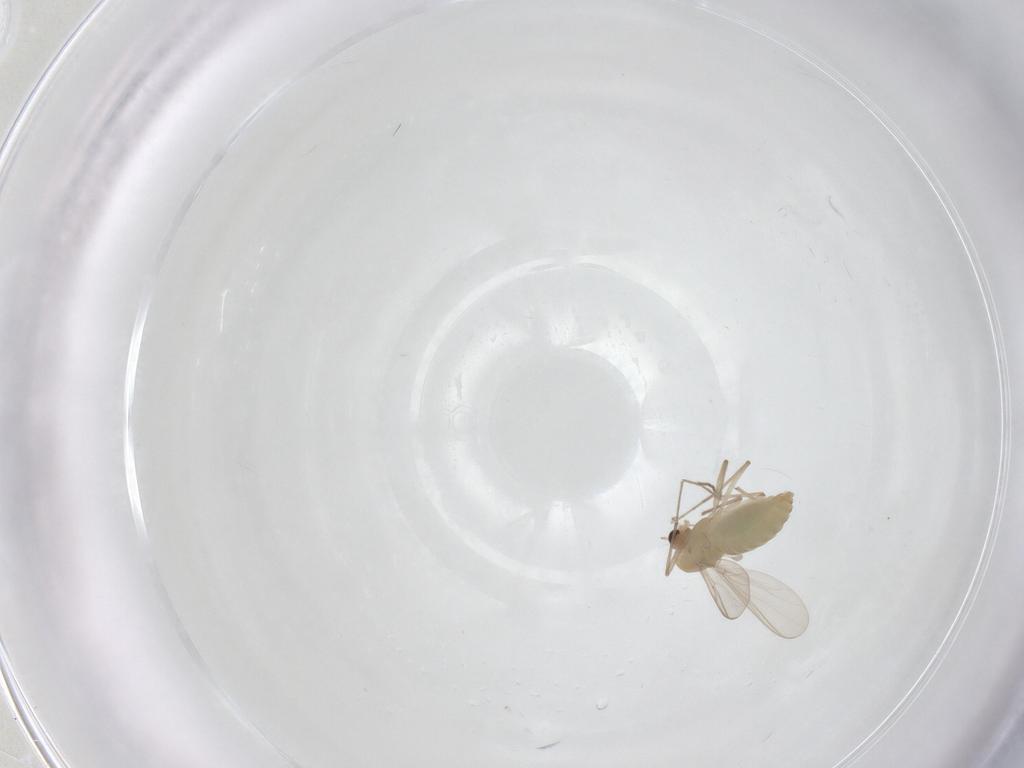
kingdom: Animalia
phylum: Arthropoda
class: Insecta
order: Diptera
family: Chironomidae
